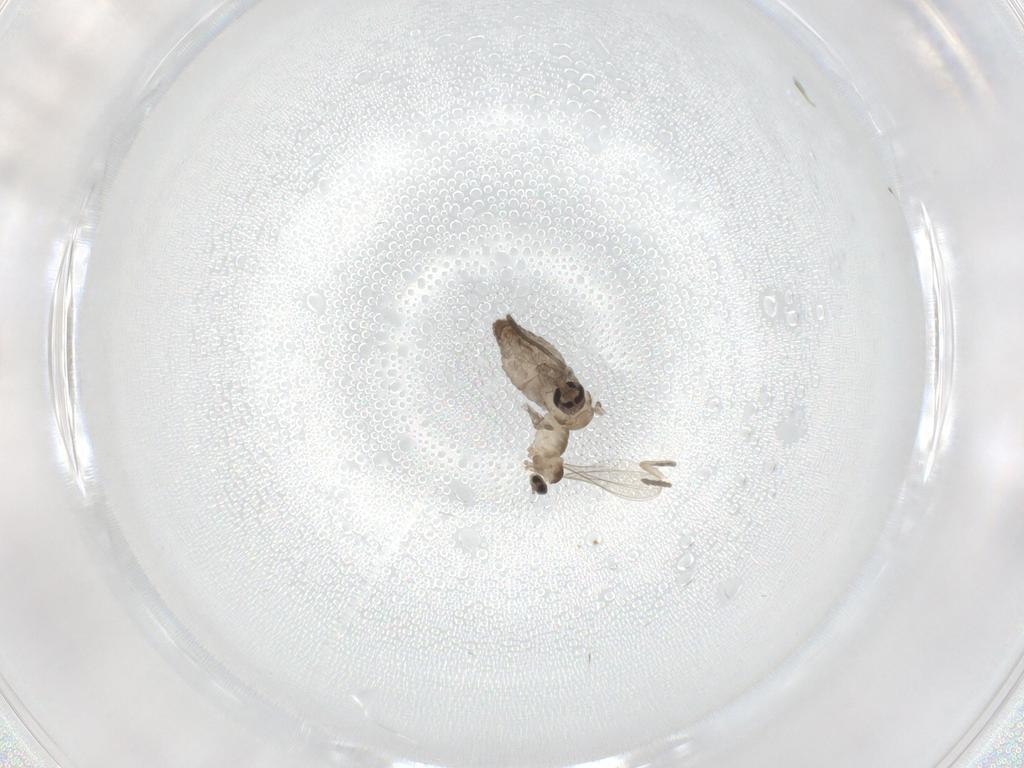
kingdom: Animalia
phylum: Arthropoda
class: Insecta
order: Diptera
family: Cecidomyiidae
